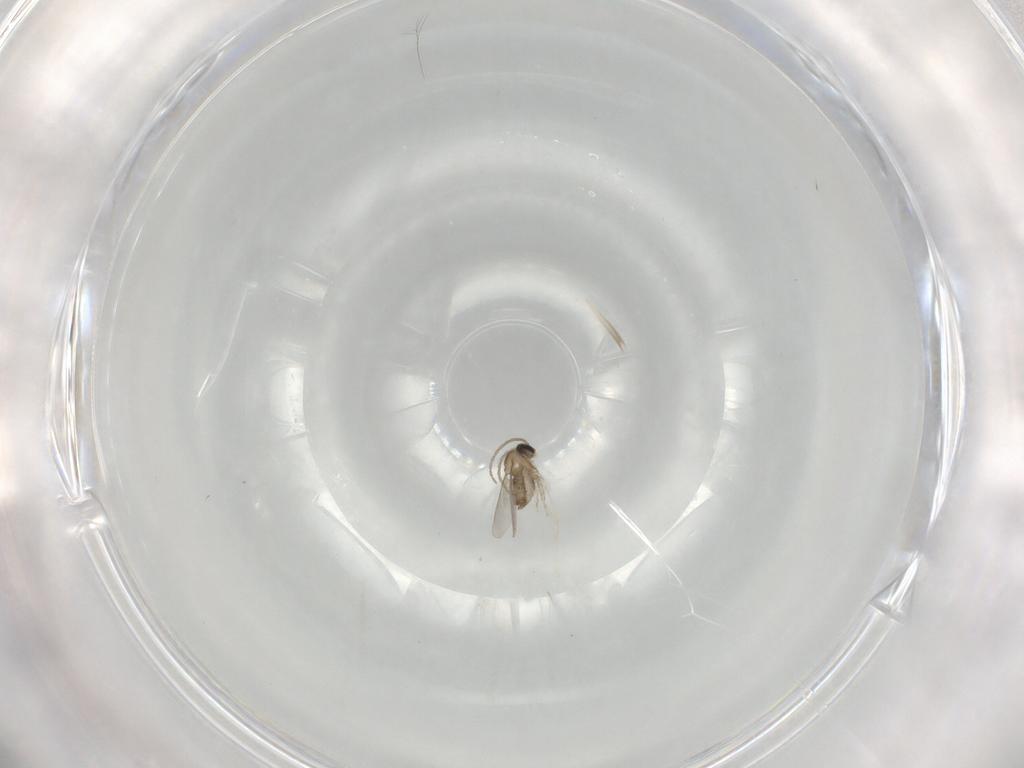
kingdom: Animalia
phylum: Arthropoda
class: Insecta
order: Diptera
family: Cecidomyiidae
